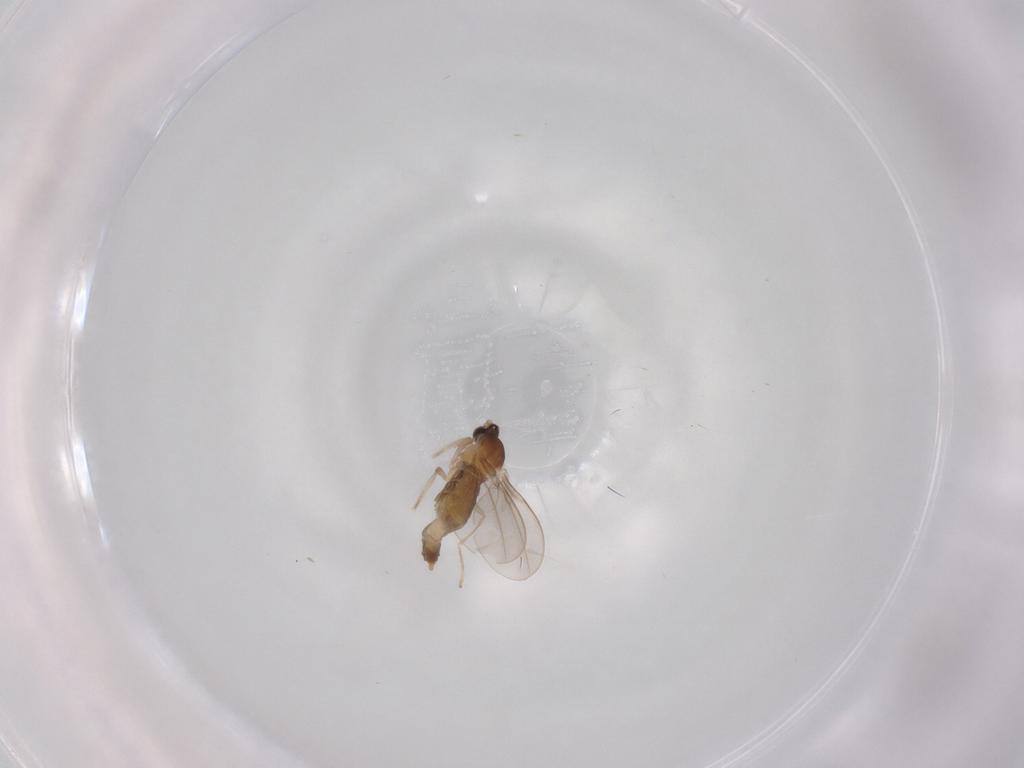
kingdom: Animalia
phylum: Arthropoda
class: Insecta
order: Diptera
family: Cecidomyiidae
